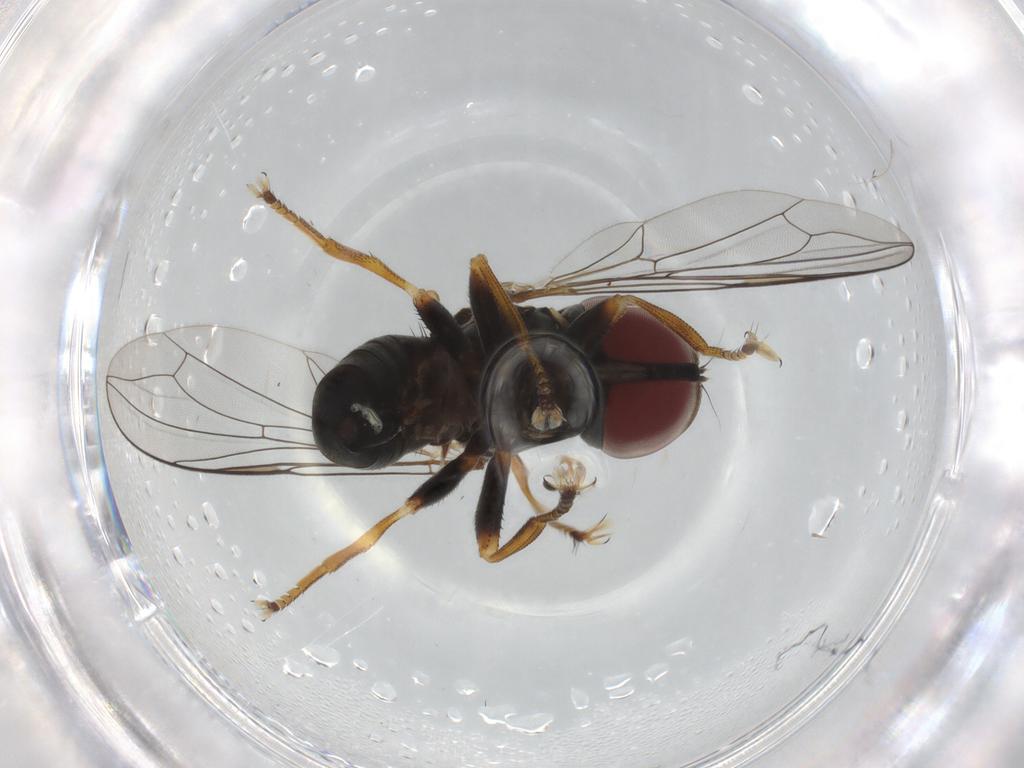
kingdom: Animalia
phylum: Arthropoda
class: Insecta
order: Diptera
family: Pipunculidae
